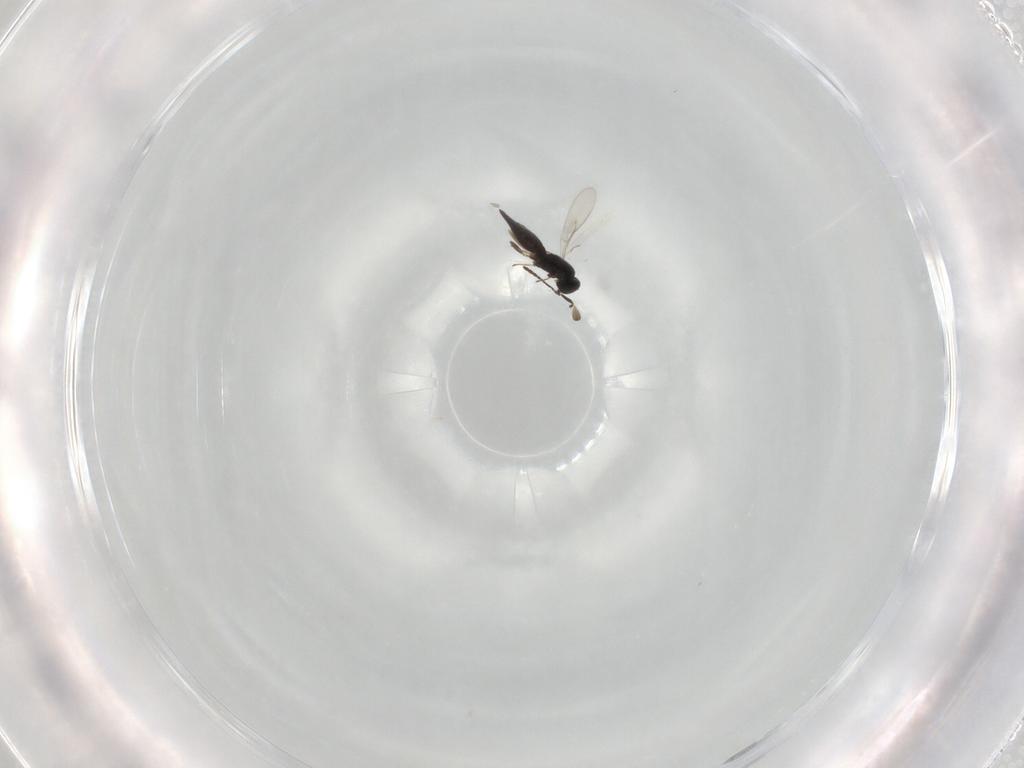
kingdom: Animalia
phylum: Arthropoda
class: Insecta
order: Hymenoptera
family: Scelionidae
